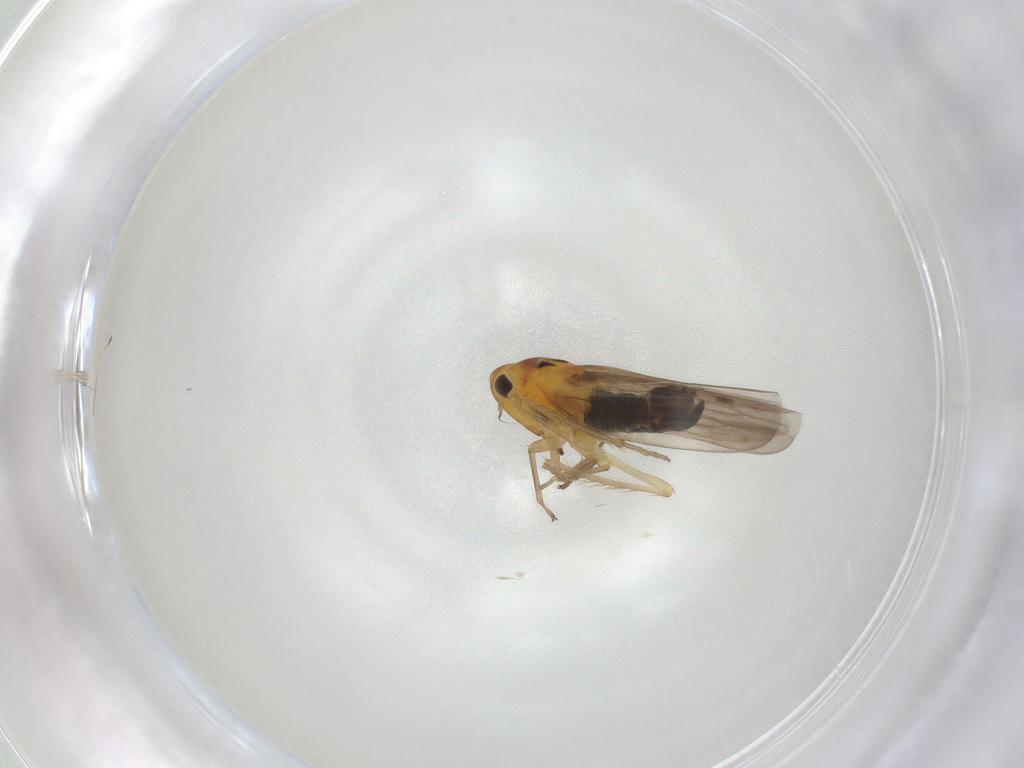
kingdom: Animalia
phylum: Arthropoda
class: Insecta
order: Hemiptera
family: Cicadellidae
